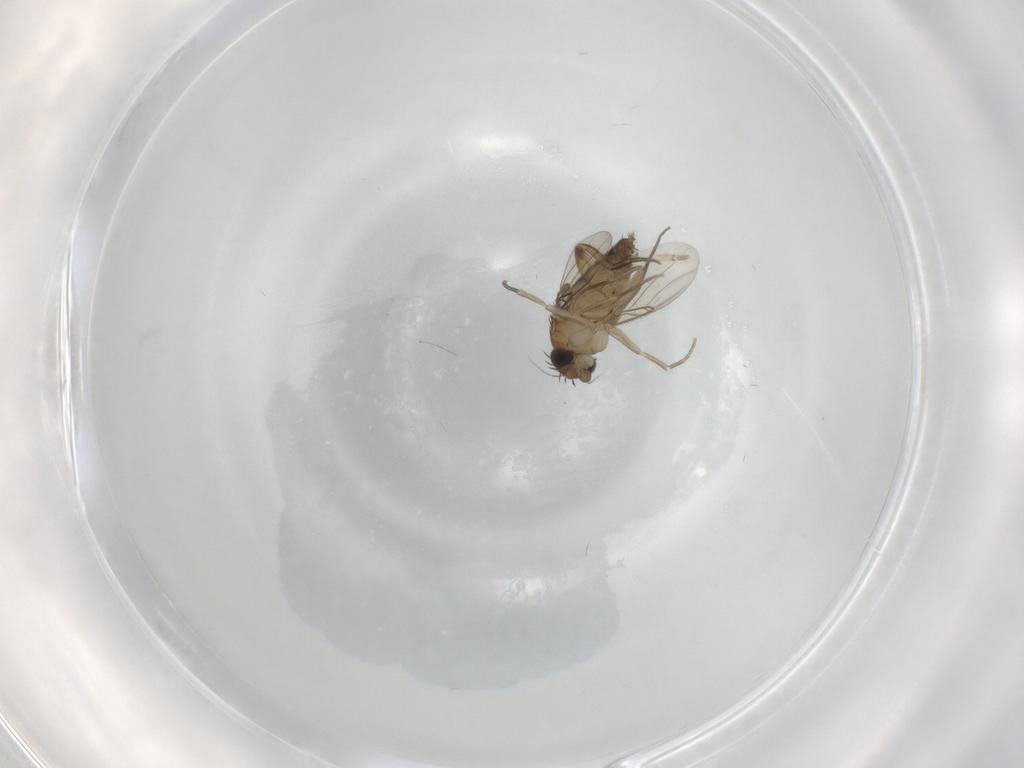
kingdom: Animalia
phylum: Arthropoda
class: Insecta
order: Diptera
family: Phoridae
